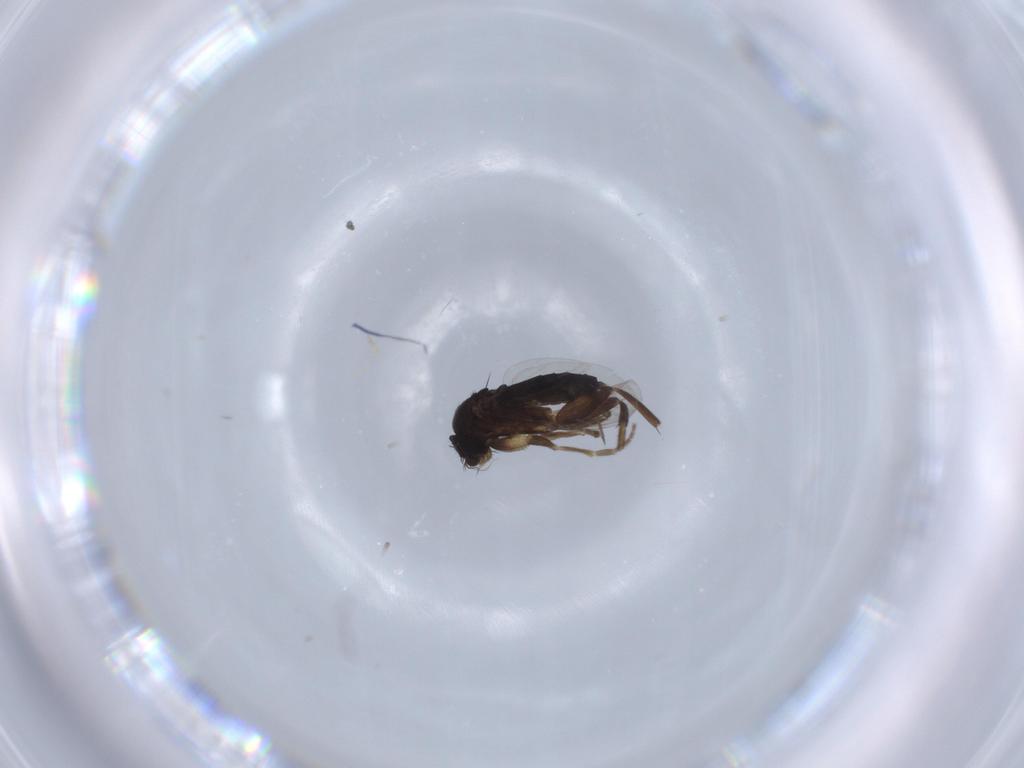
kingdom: Animalia
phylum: Arthropoda
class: Insecta
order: Diptera
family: Phoridae
